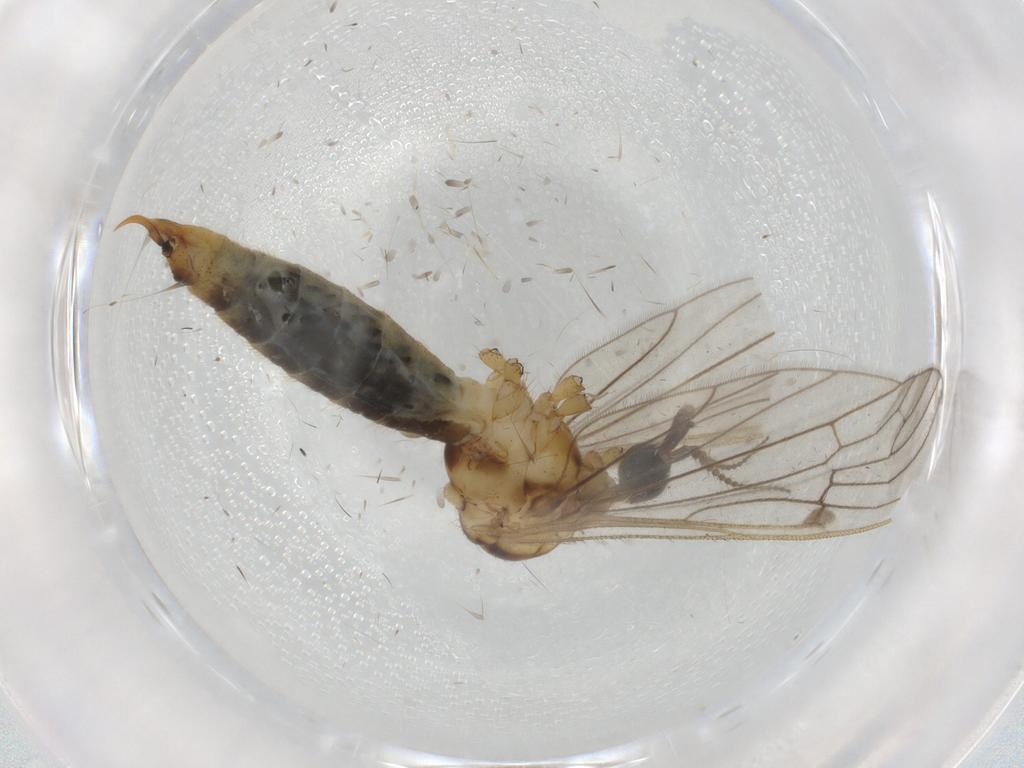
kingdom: Animalia
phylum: Arthropoda
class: Insecta
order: Diptera
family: Limoniidae
